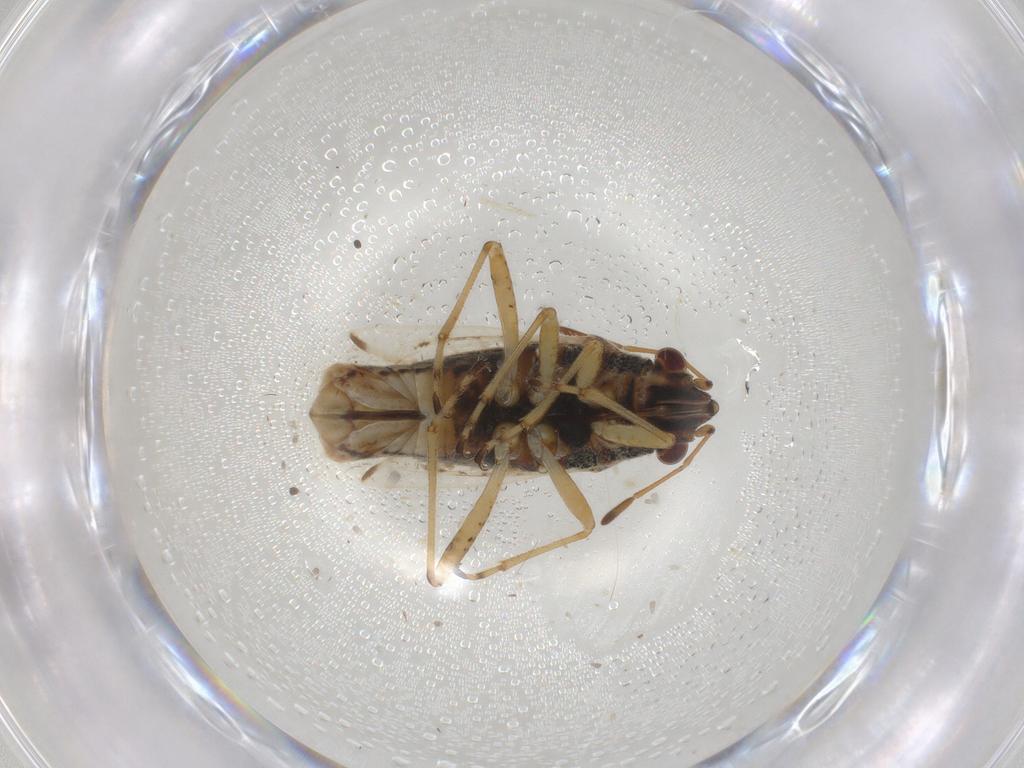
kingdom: Animalia
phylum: Arthropoda
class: Insecta
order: Hemiptera
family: Lygaeidae
